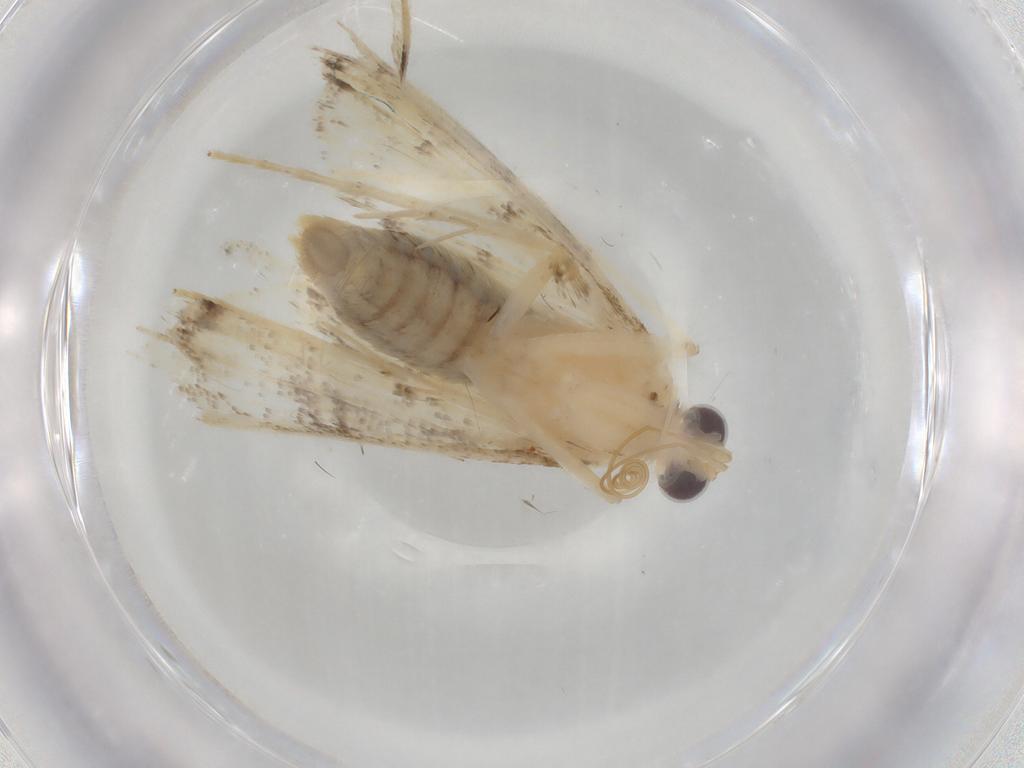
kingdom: Animalia
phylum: Arthropoda
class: Insecta
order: Lepidoptera
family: Crambidae
